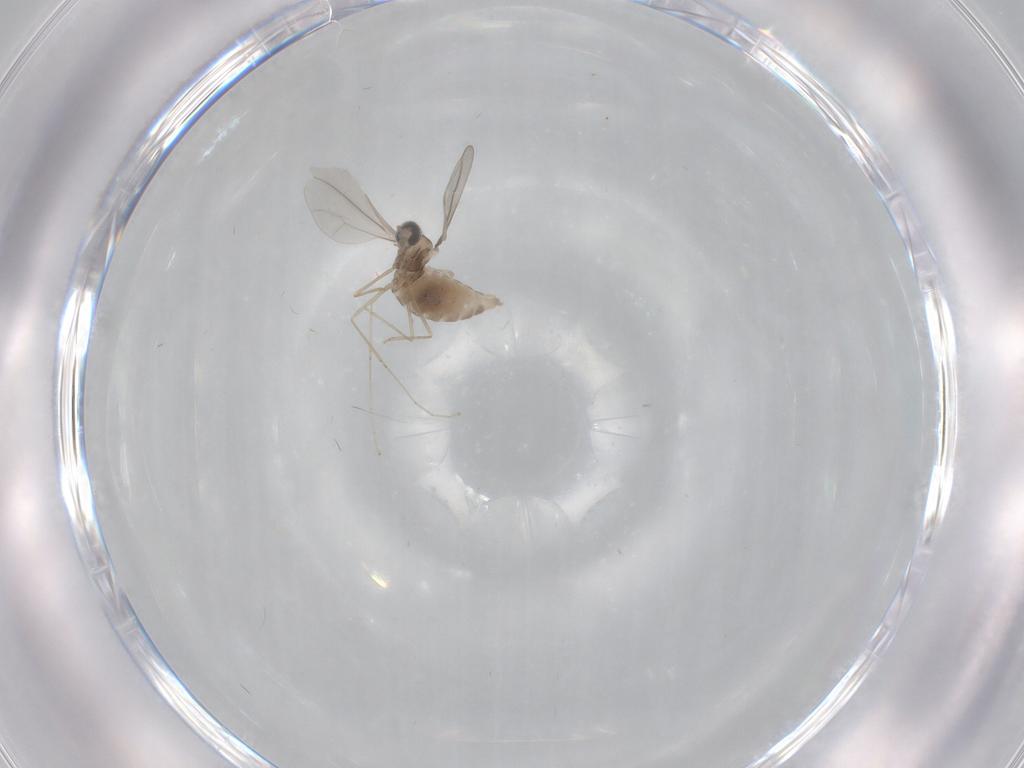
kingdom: Animalia
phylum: Arthropoda
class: Insecta
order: Diptera
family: Cecidomyiidae
